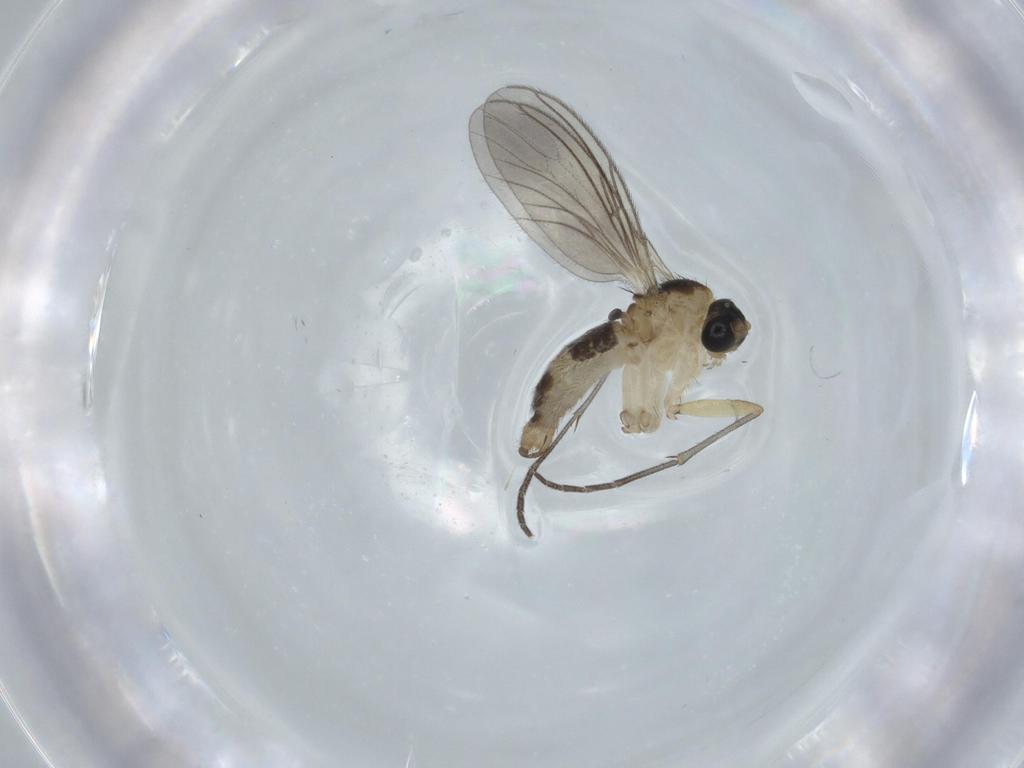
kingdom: Animalia
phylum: Arthropoda
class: Insecta
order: Diptera
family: Sciaridae
